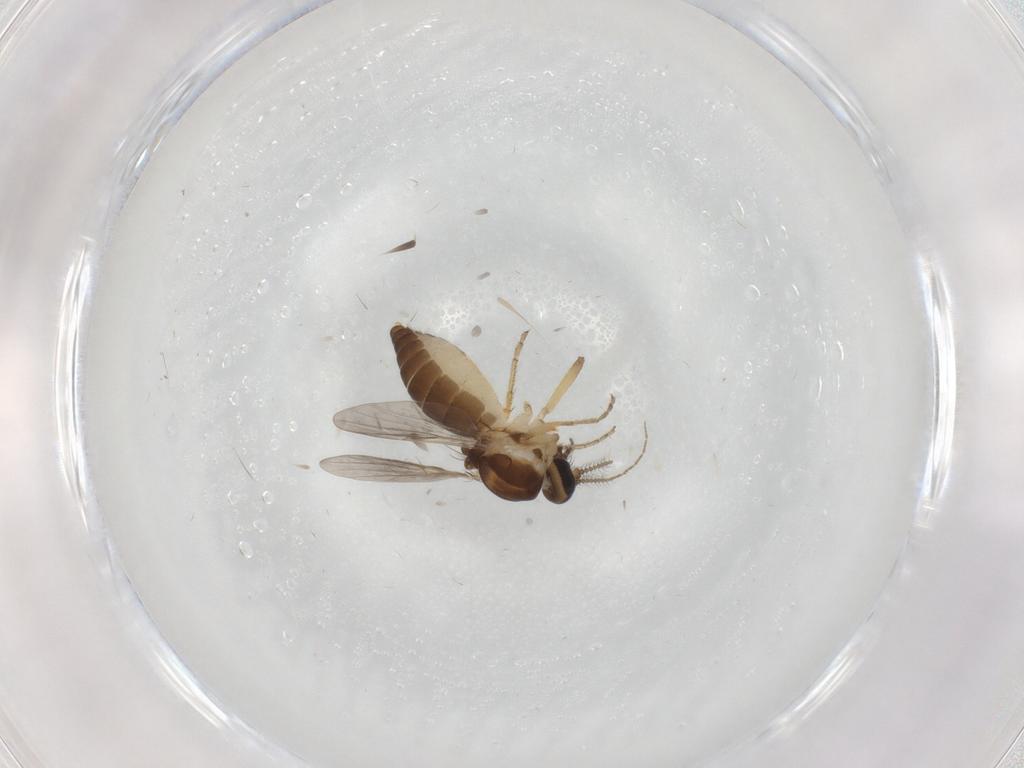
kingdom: Animalia
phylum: Arthropoda
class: Insecta
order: Diptera
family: Ceratopogonidae
